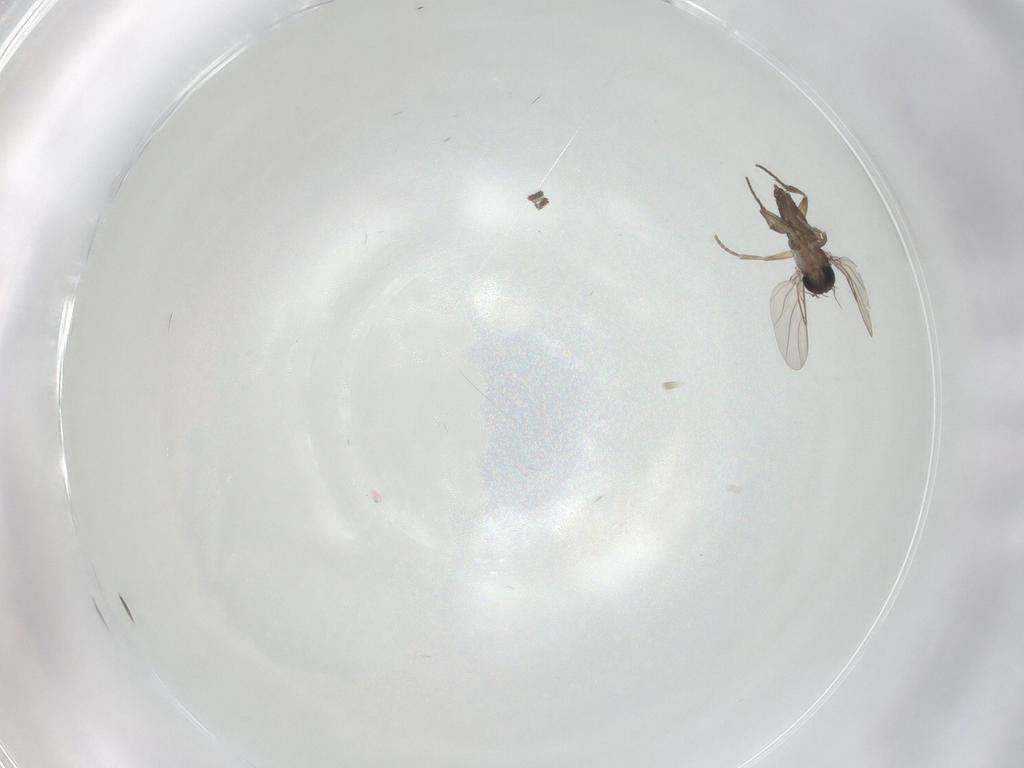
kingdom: Animalia
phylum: Arthropoda
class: Insecta
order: Diptera
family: Phoridae
